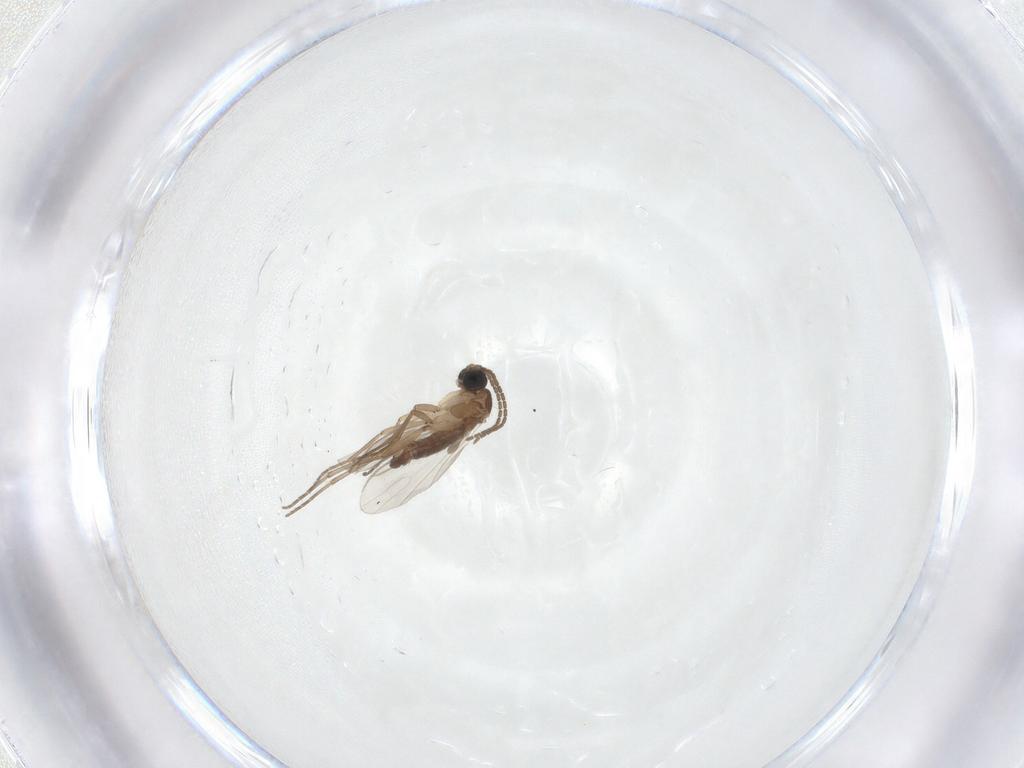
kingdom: Animalia
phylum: Arthropoda
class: Insecta
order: Diptera
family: Sciaridae
